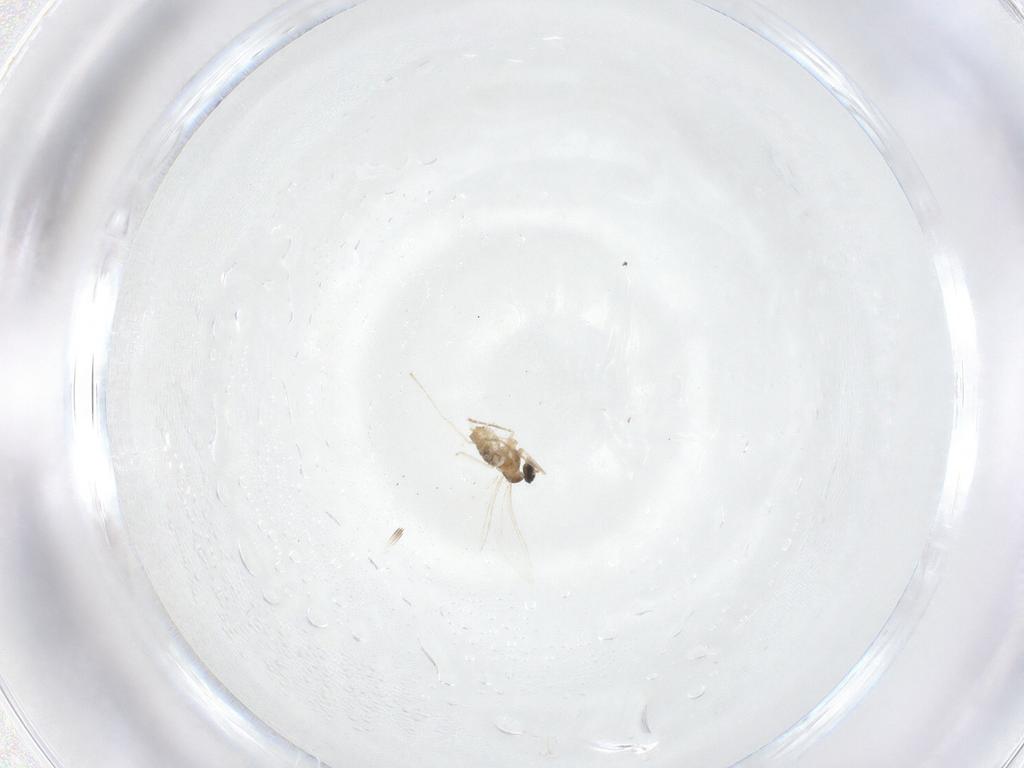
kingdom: Animalia
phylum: Arthropoda
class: Insecta
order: Diptera
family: Cecidomyiidae
